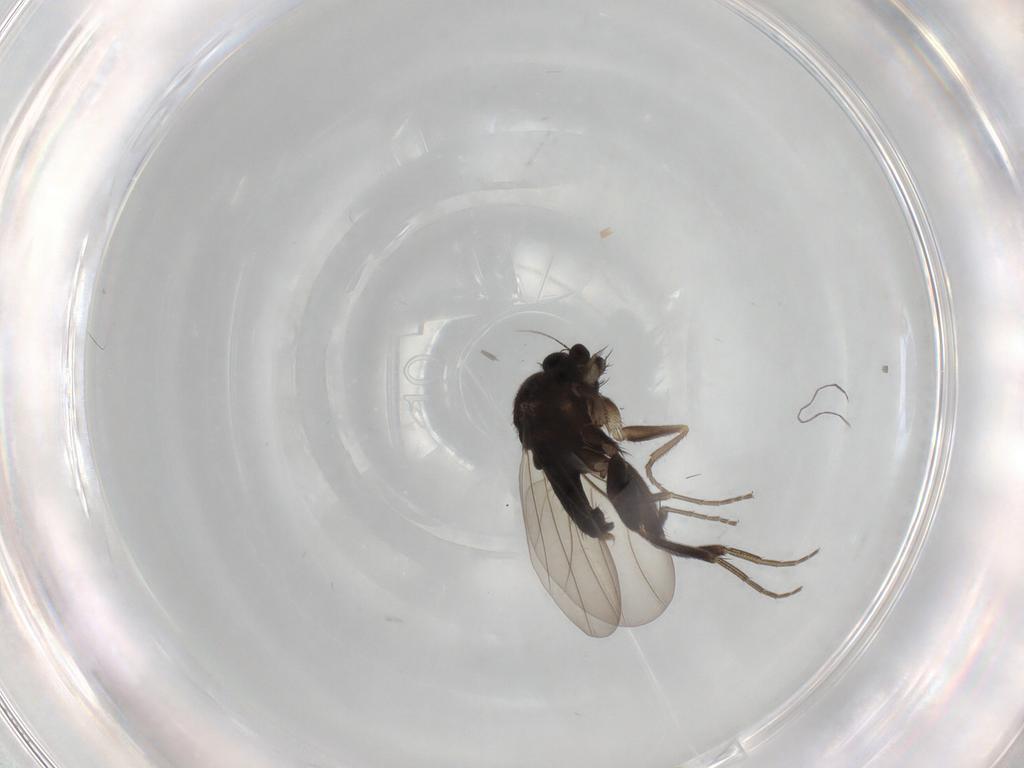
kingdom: Animalia
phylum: Arthropoda
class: Insecta
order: Diptera
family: Phoridae
